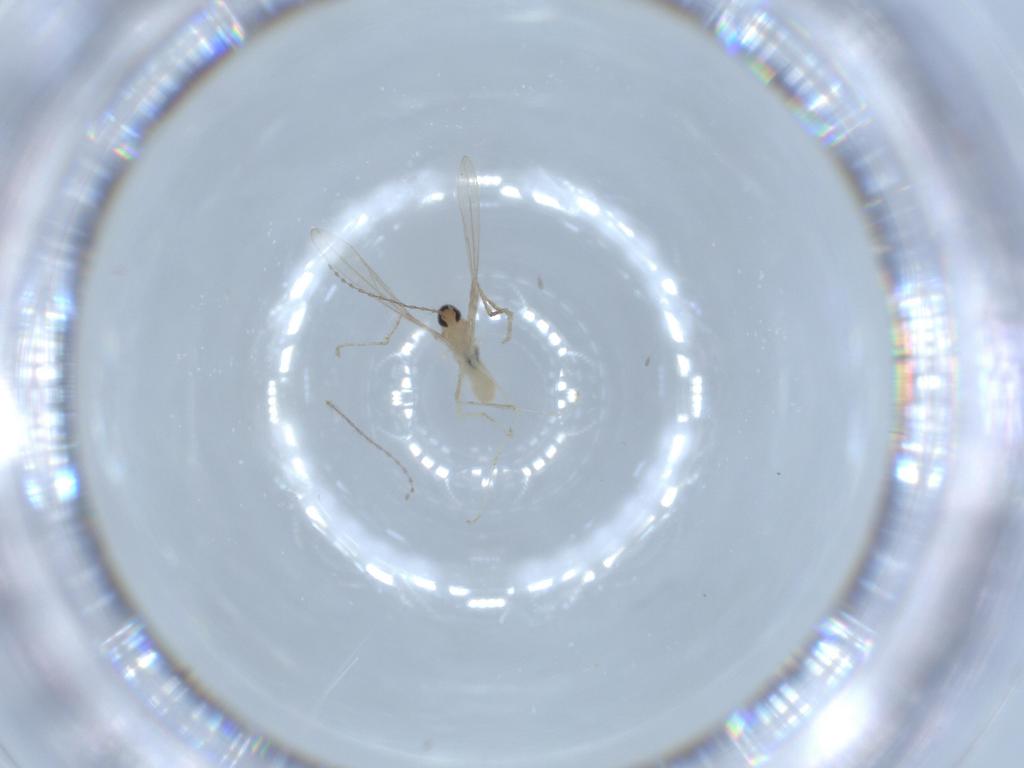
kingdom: Animalia
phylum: Arthropoda
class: Insecta
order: Diptera
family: Cecidomyiidae
